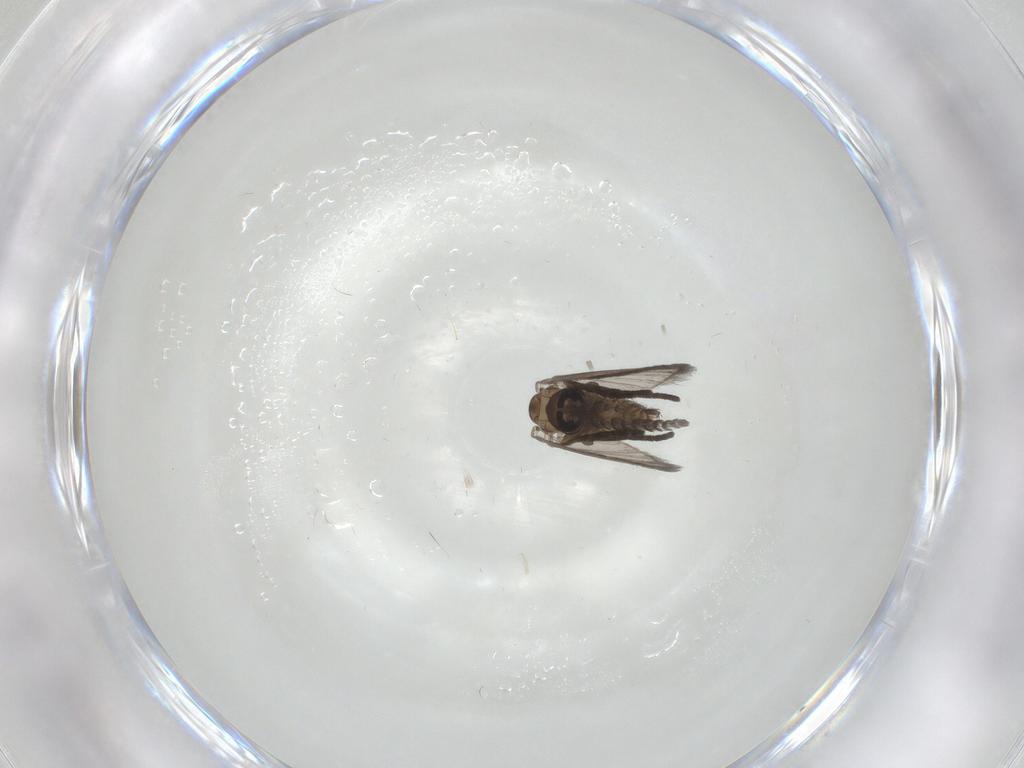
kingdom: Animalia
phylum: Arthropoda
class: Insecta
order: Diptera
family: Psychodidae
